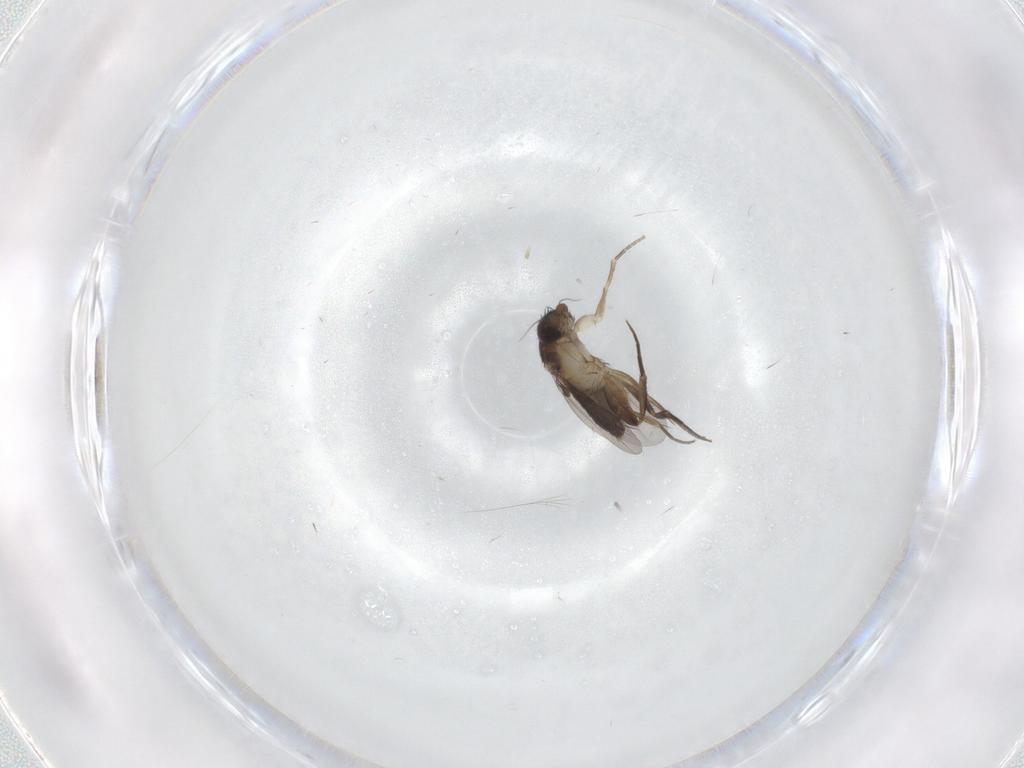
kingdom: Animalia
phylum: Arthropoda
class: Insecta
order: Diptera
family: Phoridae
